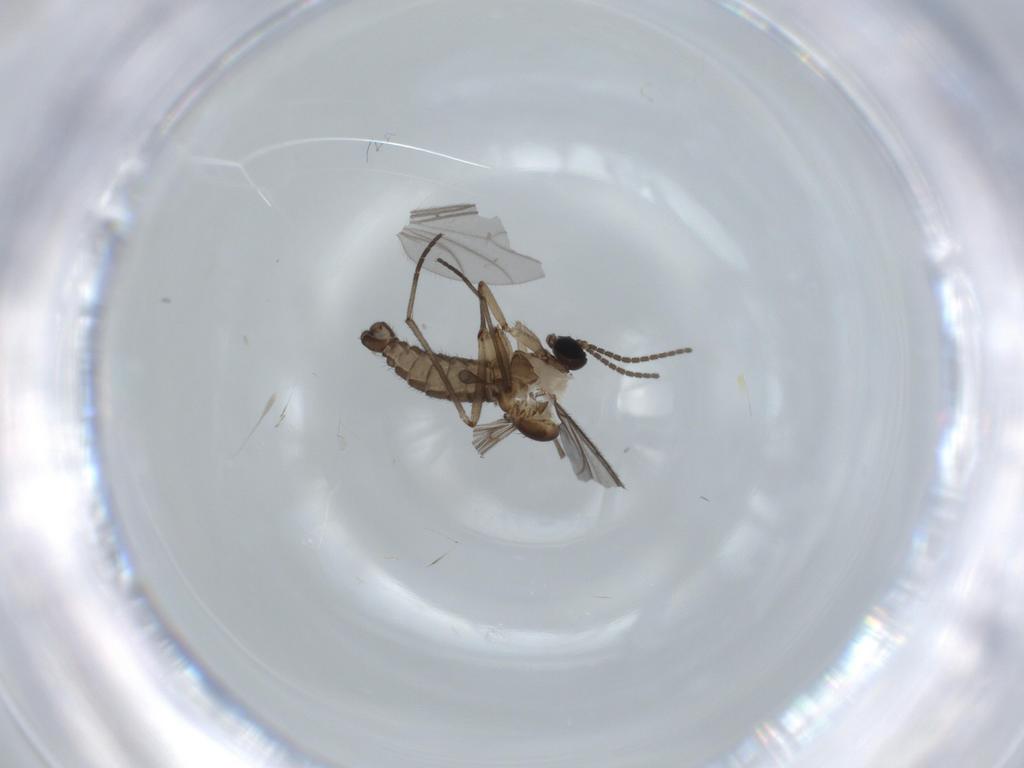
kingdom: Animalia
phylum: Arthropoda
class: Insecta
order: Diptera
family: Sciaridae
